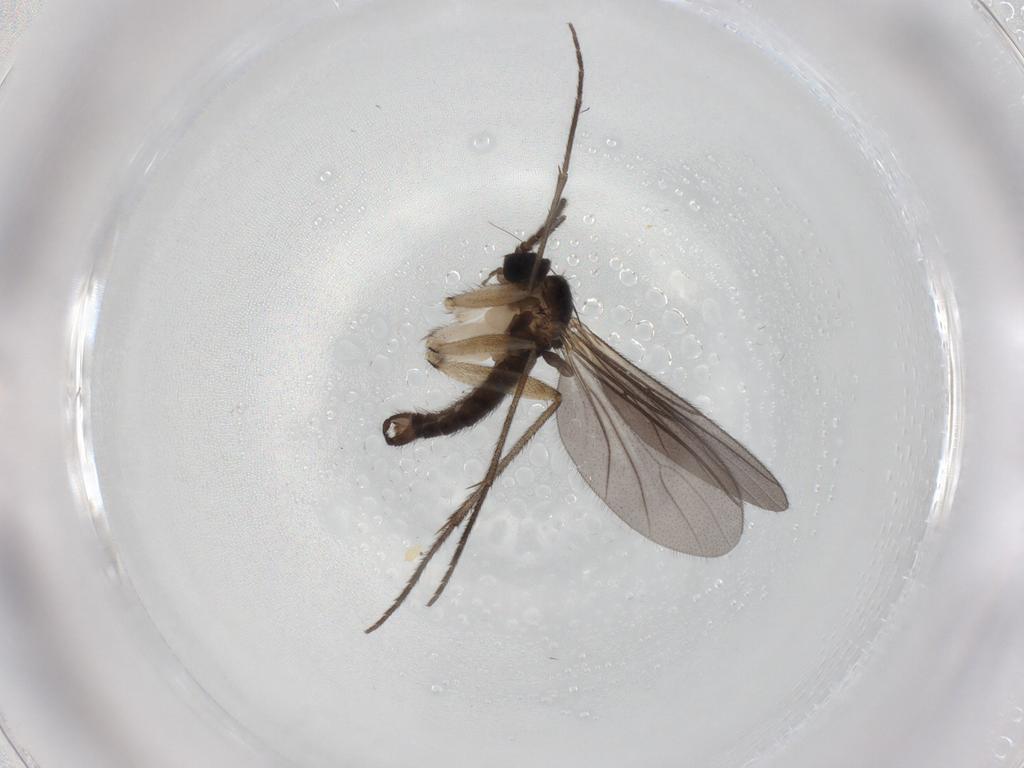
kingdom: Animalia
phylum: Arthropoda
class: Insecta
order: Diptera
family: Sciaridae
